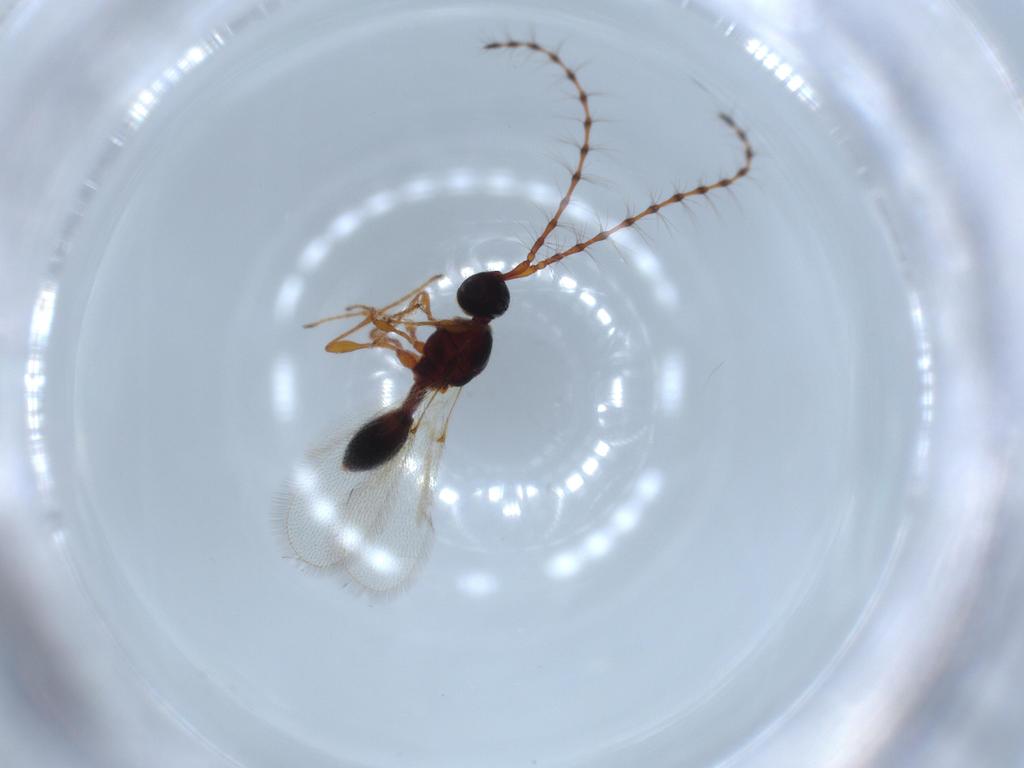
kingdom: Animalia
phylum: Arthropoda
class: Insecta
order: Hymenoptera
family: Diapriidae
